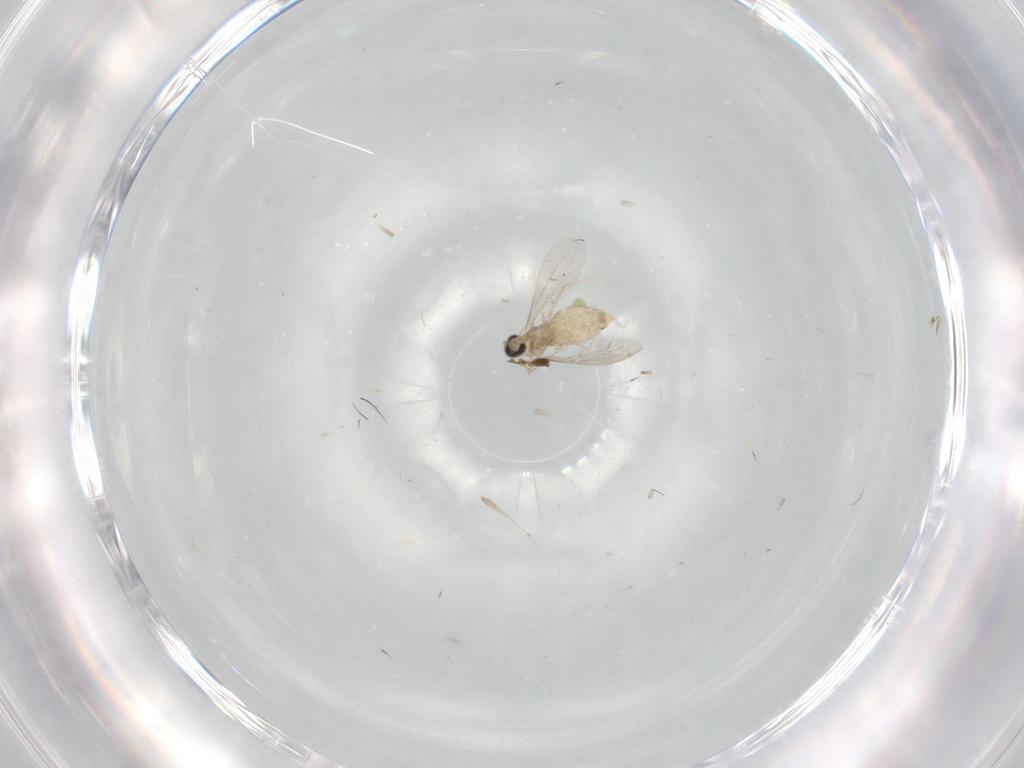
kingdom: Animalia
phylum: Arthropoda
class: Insecta
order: Diptera
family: Cecidomyiidae
